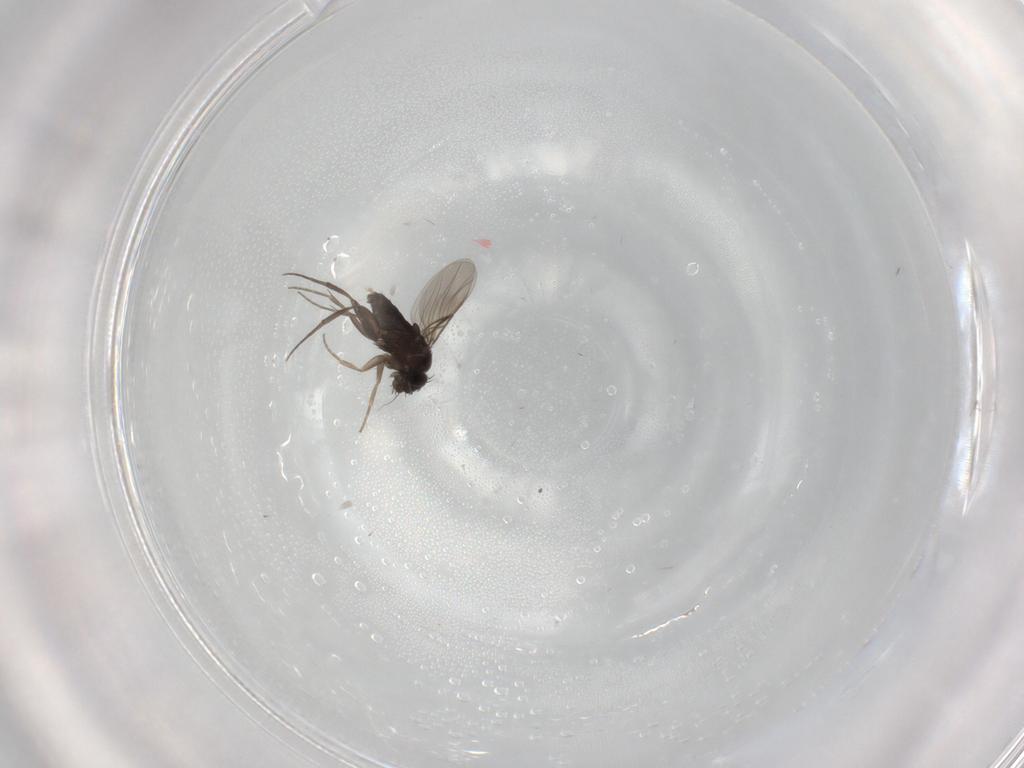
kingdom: Animalia
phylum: Arthropoda
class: Insecta
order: Diptera
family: Phoridae
